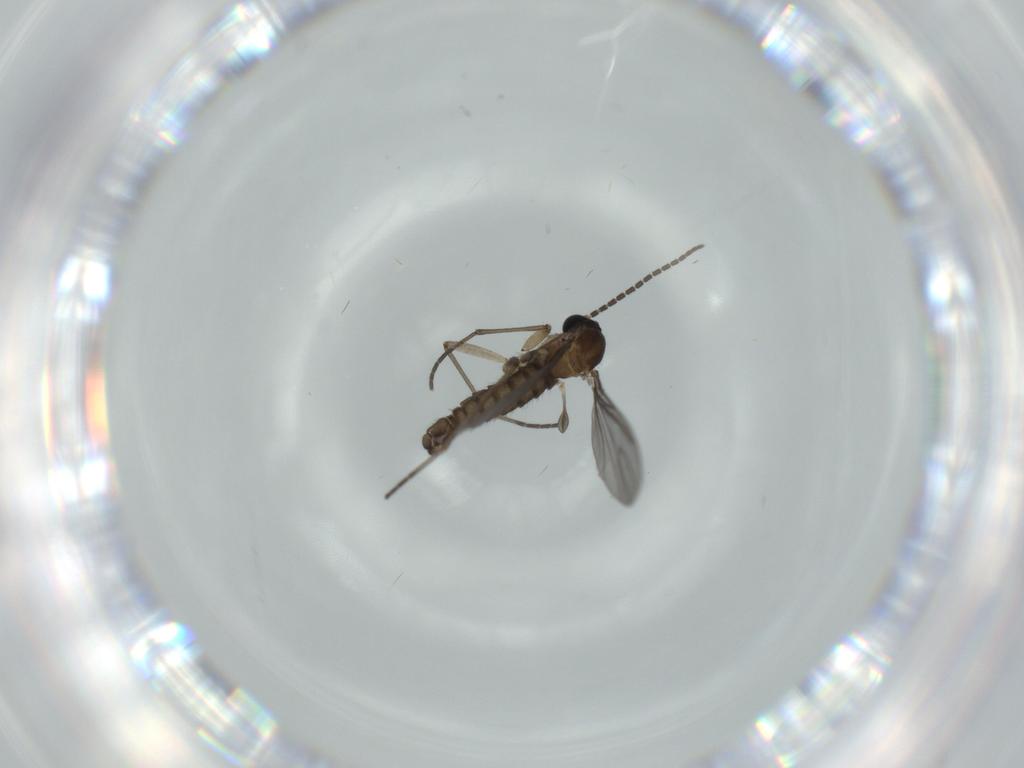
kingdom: Animalia
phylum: Arthropoda
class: Insecta
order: Diptera
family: Sciaridae
